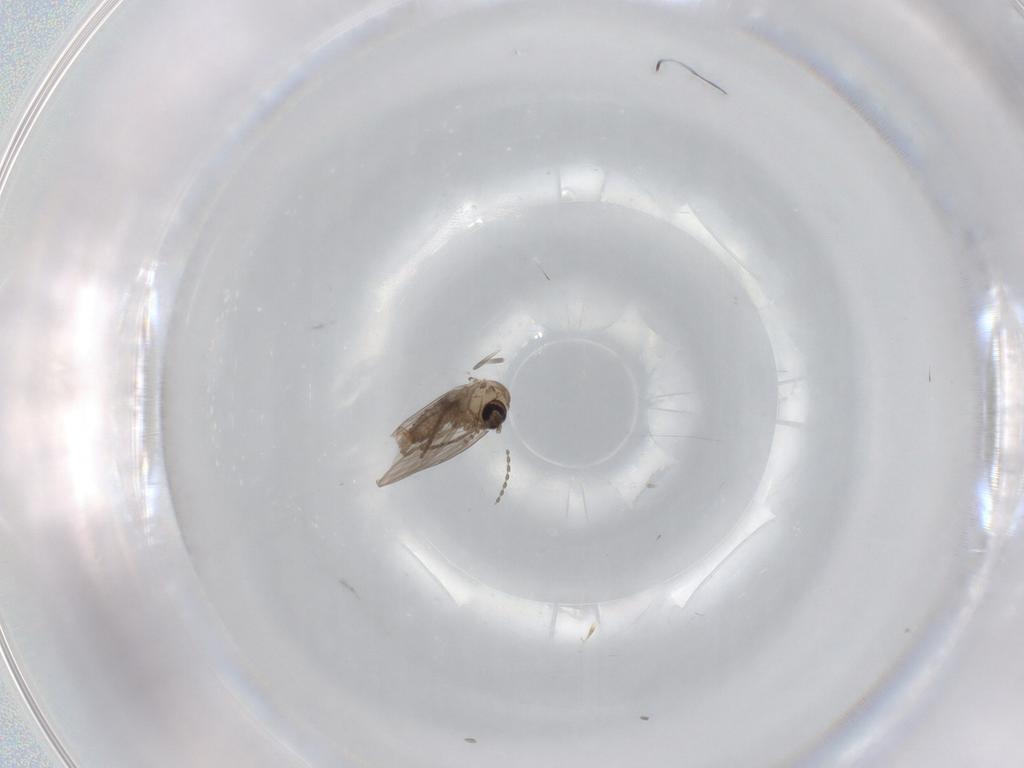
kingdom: Animalia
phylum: Arthropoda
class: Insecta
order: Diptera
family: Psychodidae
